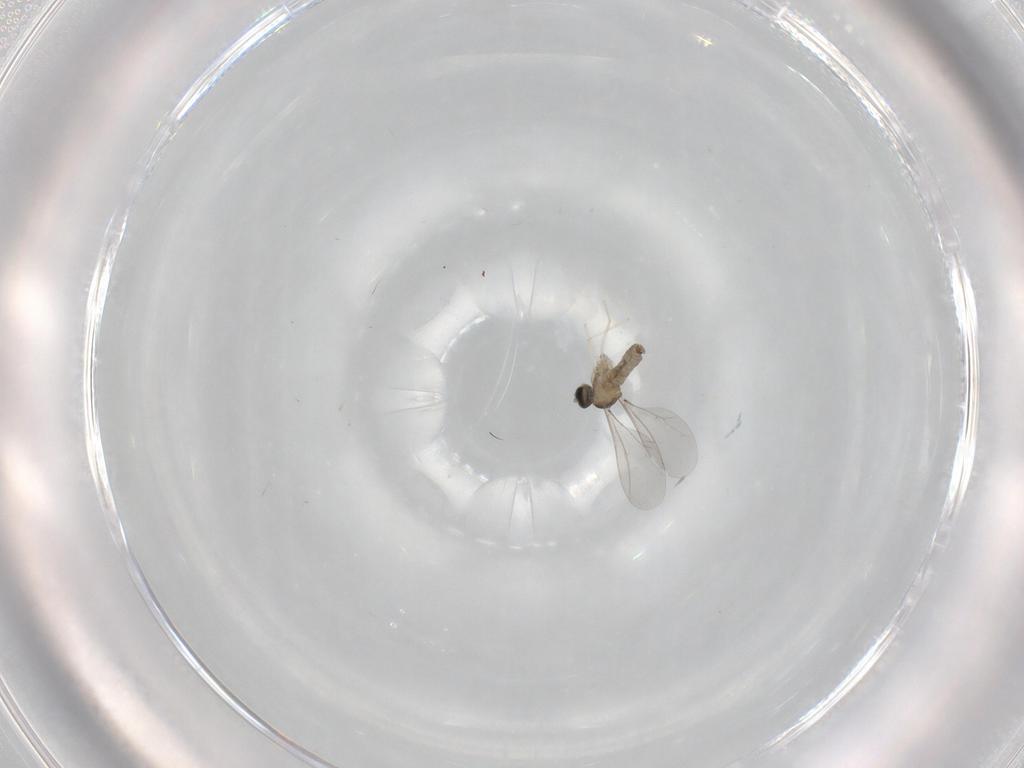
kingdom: Animalia
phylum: Arthropoda
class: Insecta
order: Diptera
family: Cecidomyiidae
